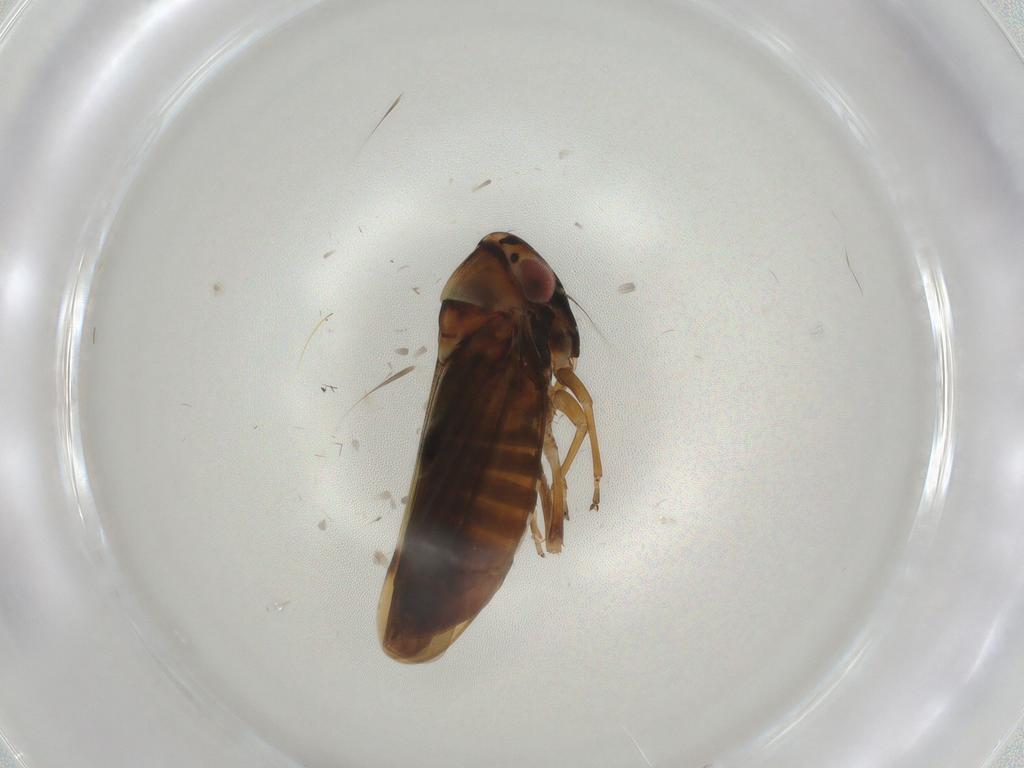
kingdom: Animalia
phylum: Arthropoda
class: Insecta
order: Hemiptera
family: Cicadellidae
